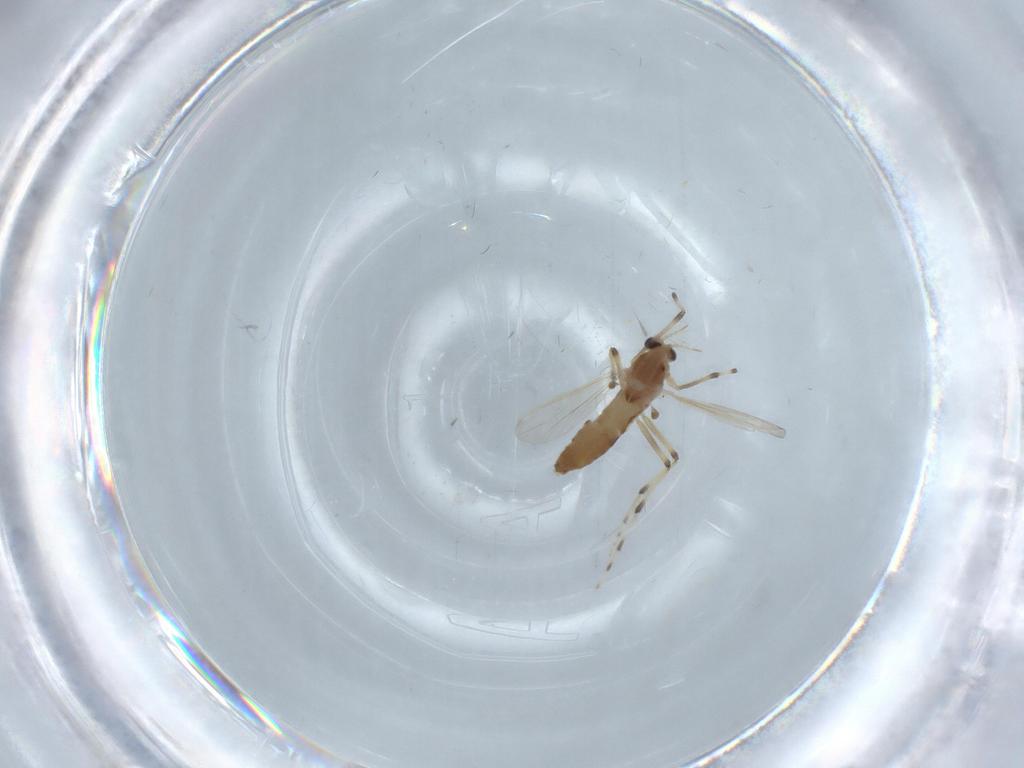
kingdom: Animalia
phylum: Arthropoda
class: Insecta
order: Diptera
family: Chironomidae
